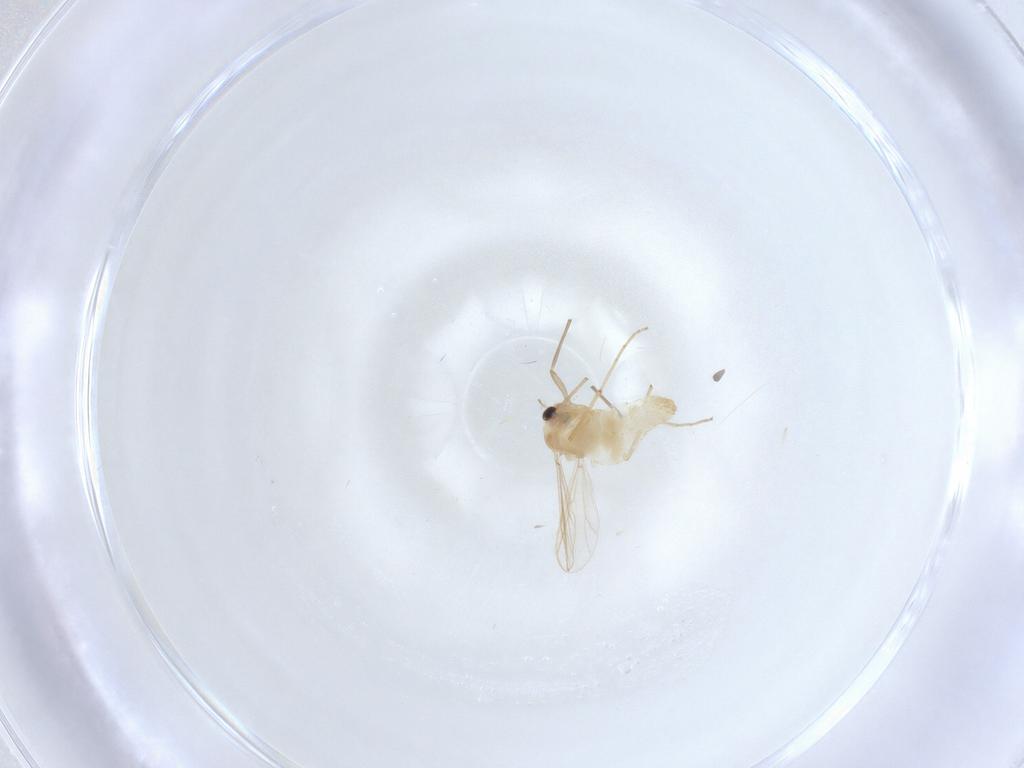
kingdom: Animalia
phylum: Arthropoda
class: Insecta
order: Diptera
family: Chironomidae
